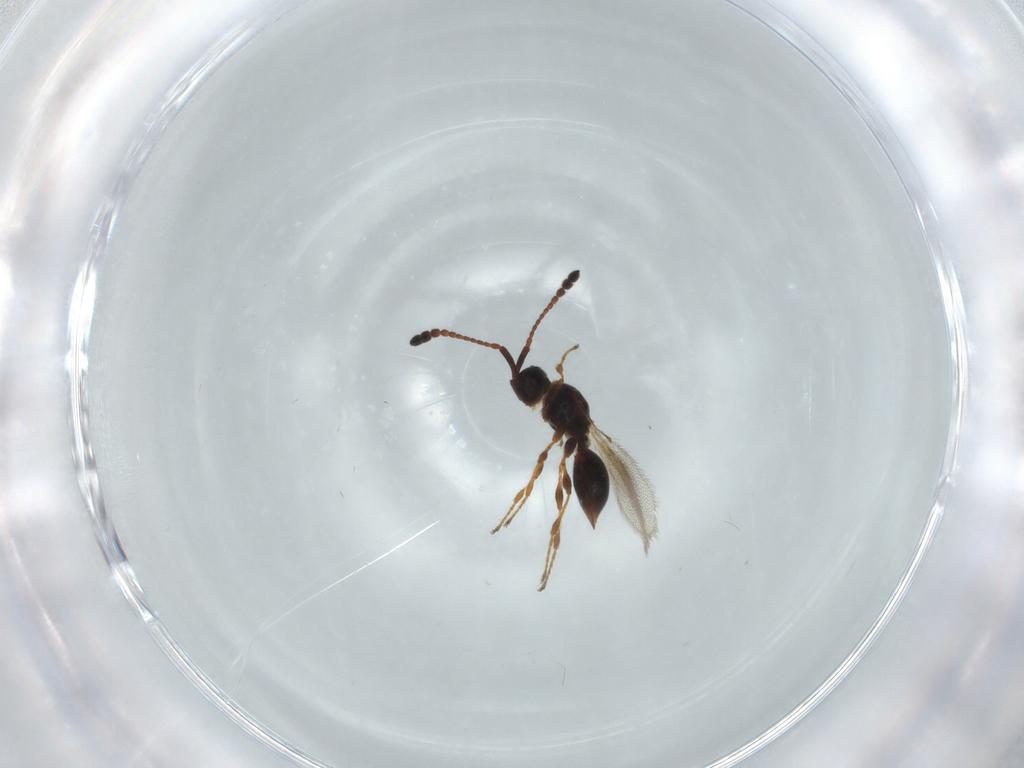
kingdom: Animalia
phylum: Arthropoda
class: Insecta
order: Hymenoptera
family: Diapriidae
